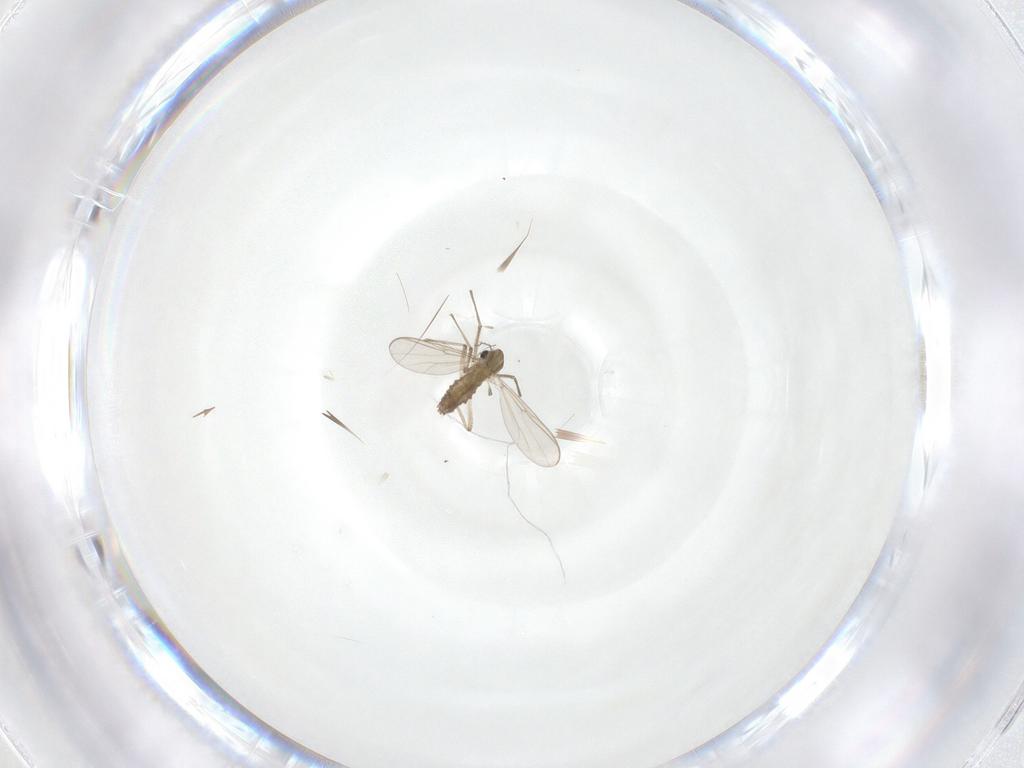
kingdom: Animalia
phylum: Arthropoda
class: Insecta
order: Diptera
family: Chironomidae
